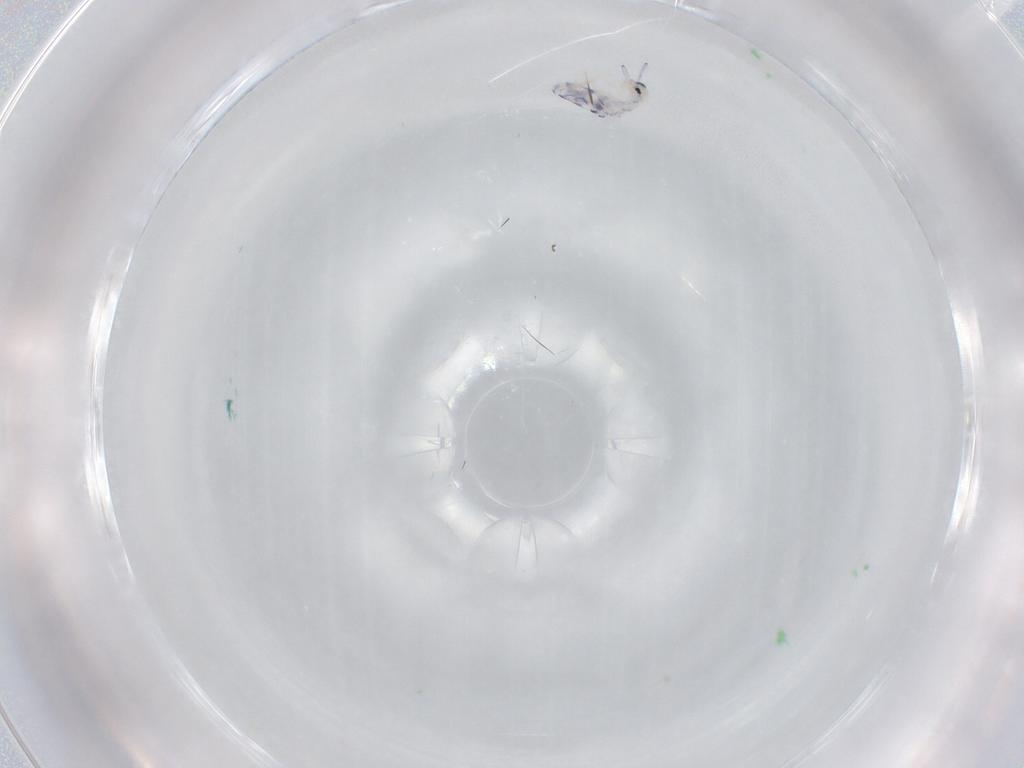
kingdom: Animalia
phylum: Arthropoda
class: Collembola
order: Entomobryomorpha
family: Entomobryidae
